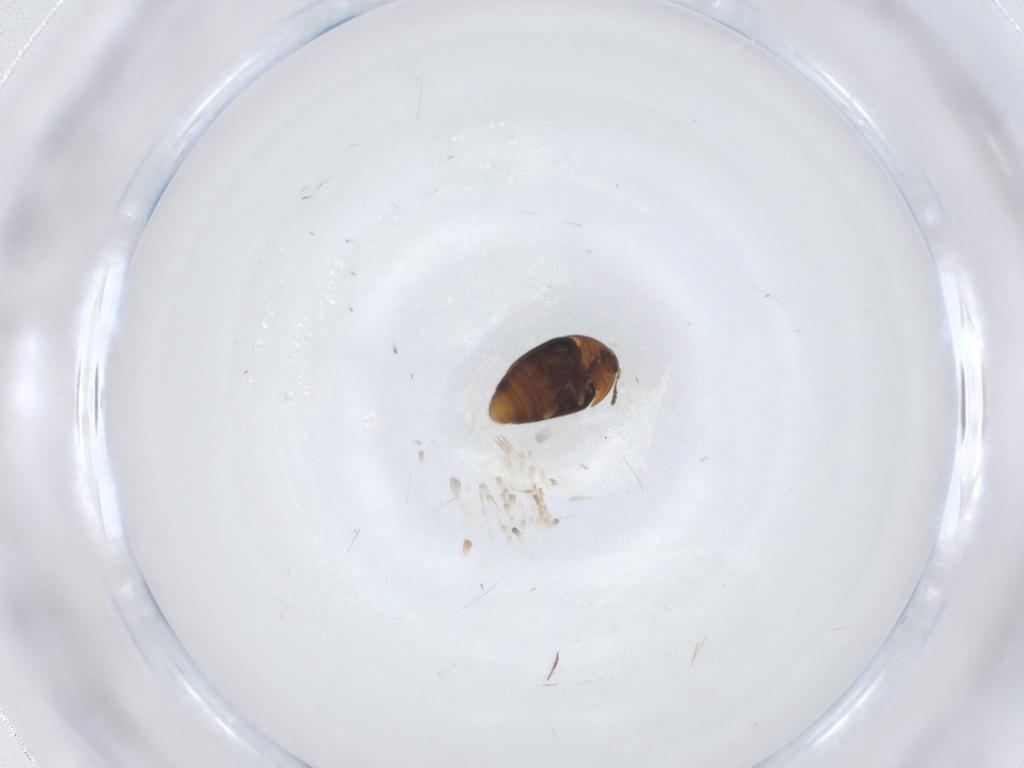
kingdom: Animalia
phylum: Arthropoda
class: Insecta
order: Coleoptera
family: Corylophidae
